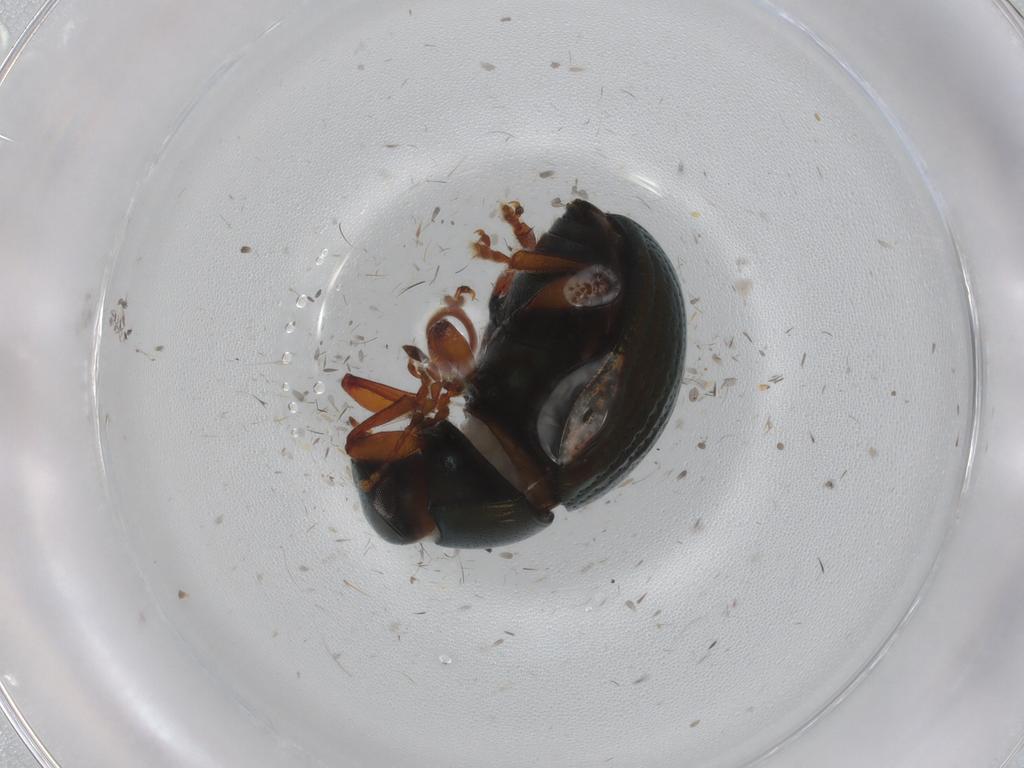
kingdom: Animalia
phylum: Arthropoda
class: Insecta
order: Coleoptera
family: Chrysomelidae
